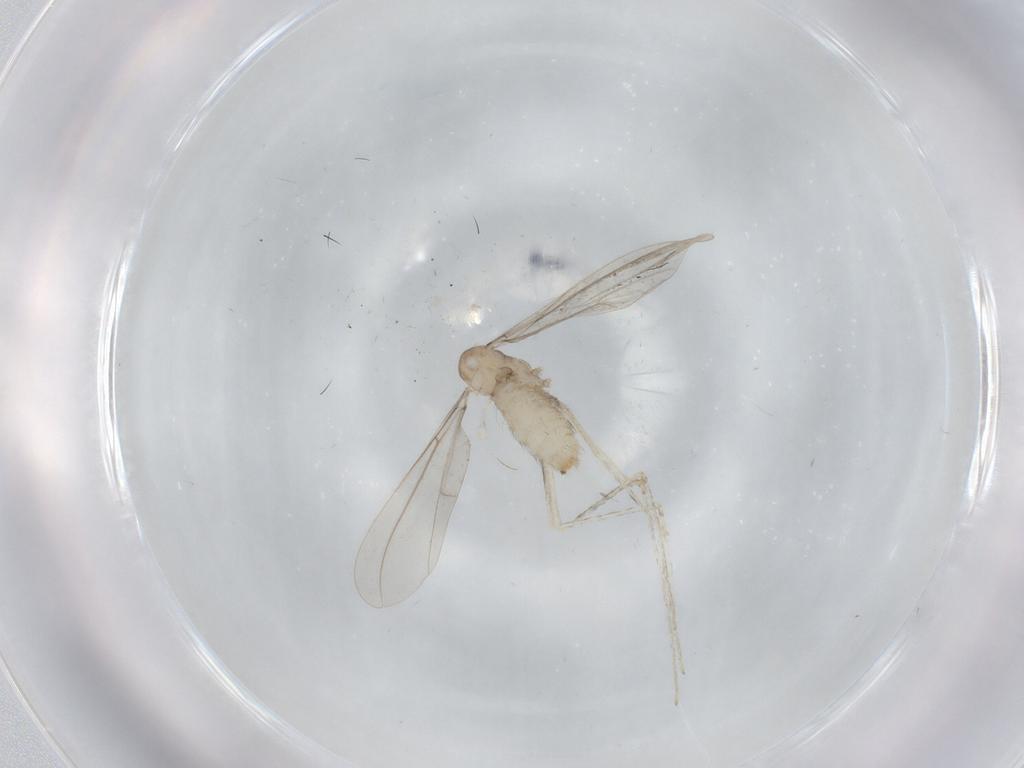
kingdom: Animalia
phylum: Arthropoda
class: Insecta
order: Diptera
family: Cecidomyiidae
